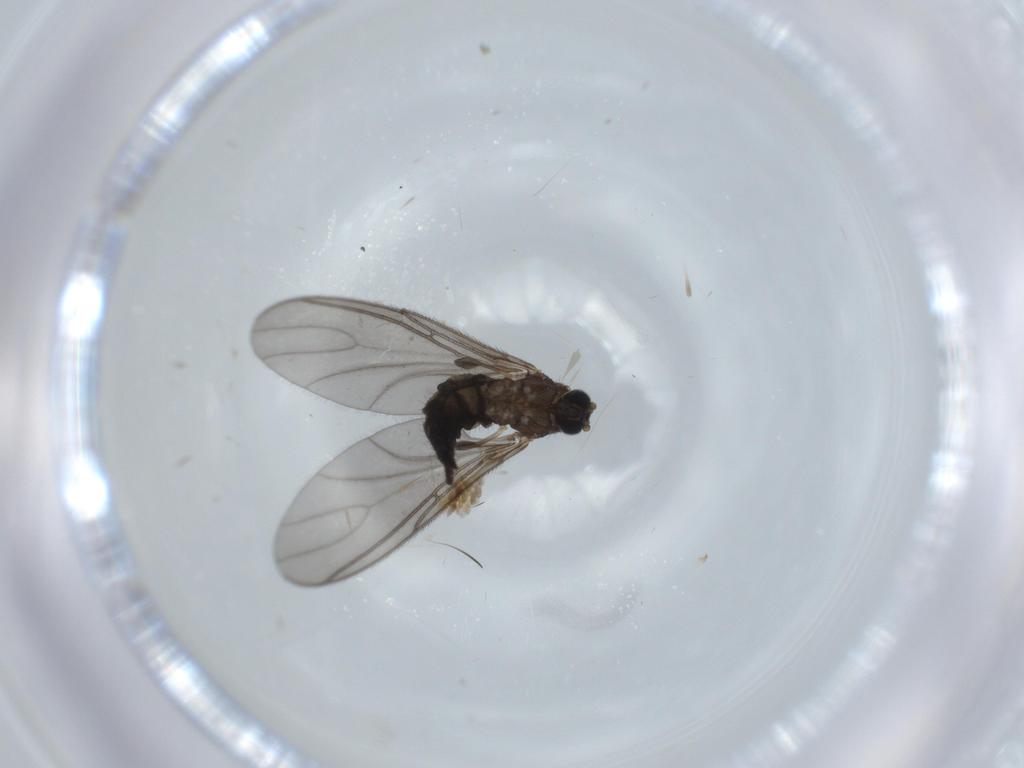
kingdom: Animalia
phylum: Arthropoda
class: Insecta
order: Diptera
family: Sciaridae
